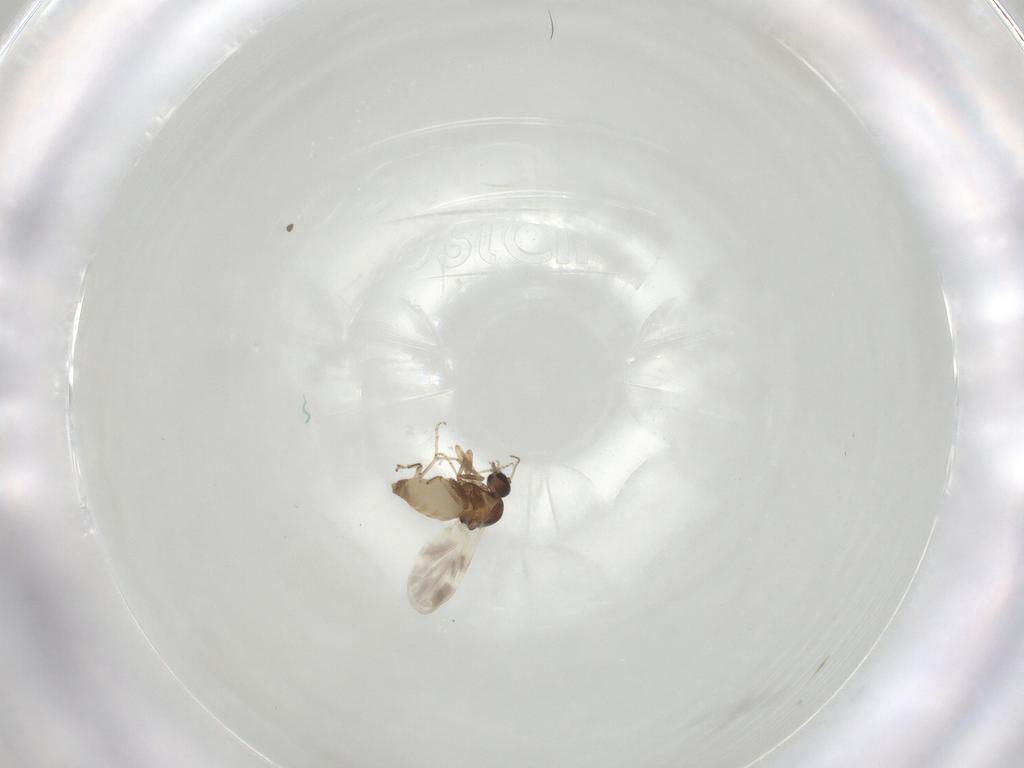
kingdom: Animalia
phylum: Arthropoda
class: Insecta
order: Diptera
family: Ceratopogonidae
